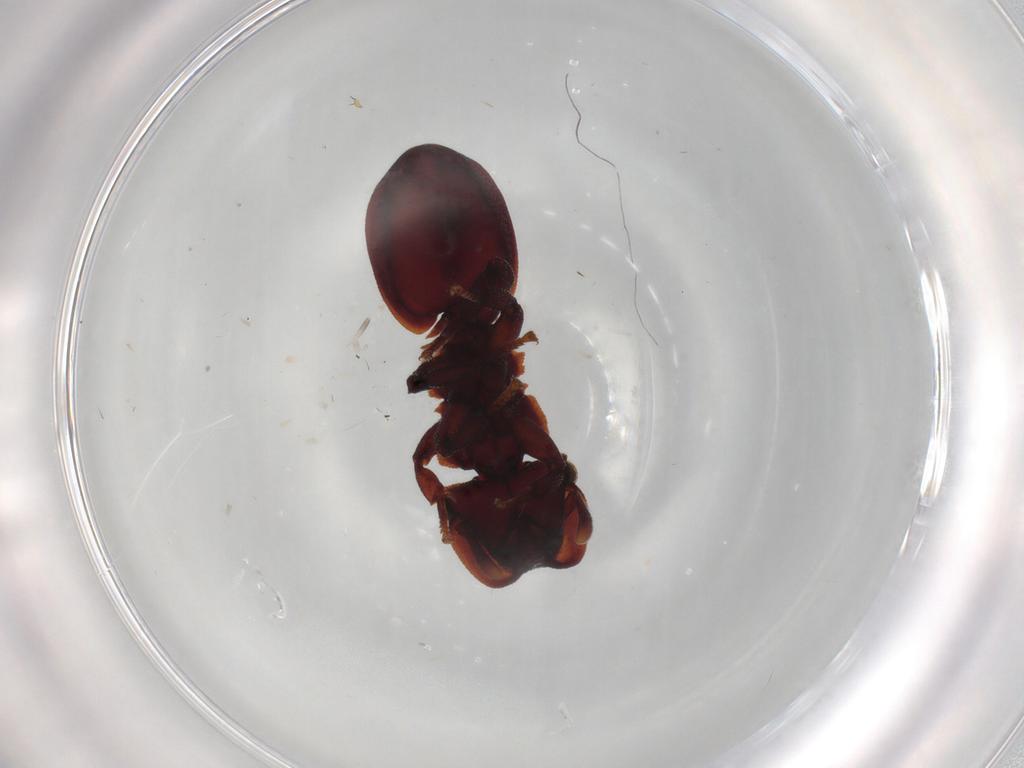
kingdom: Animalia
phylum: Arthropoda
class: Insecta
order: Hymenoptera
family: Formicidae
